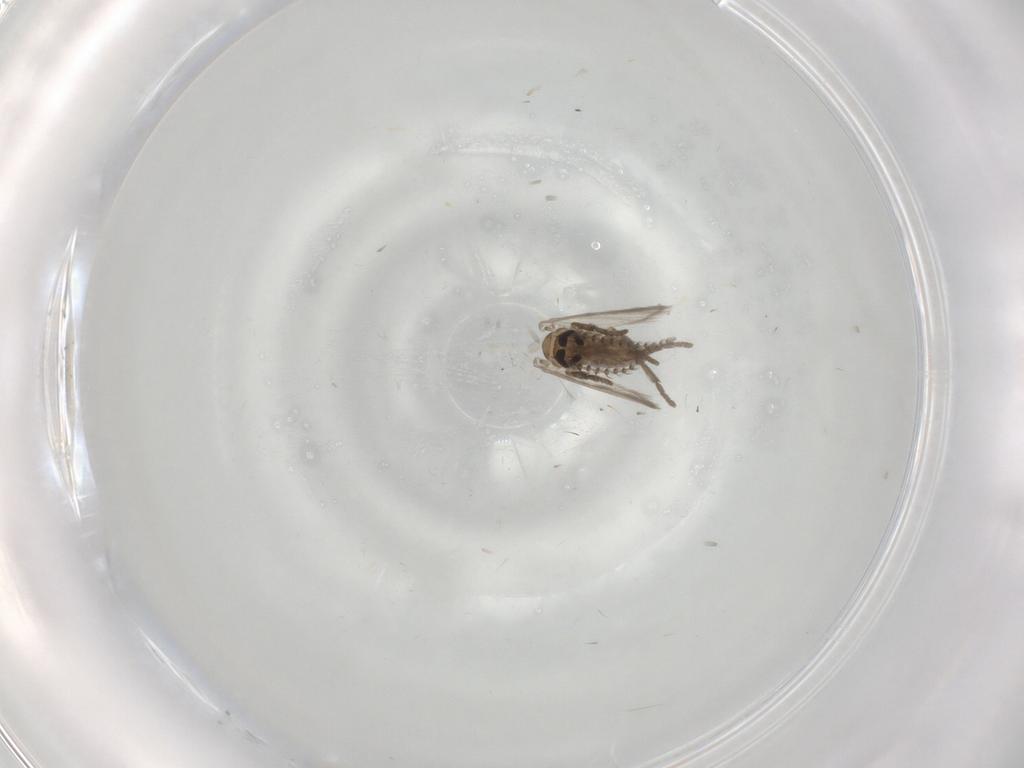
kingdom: Animalia
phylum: Arthropoda
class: Insecta
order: Diptera
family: Psychodidae
